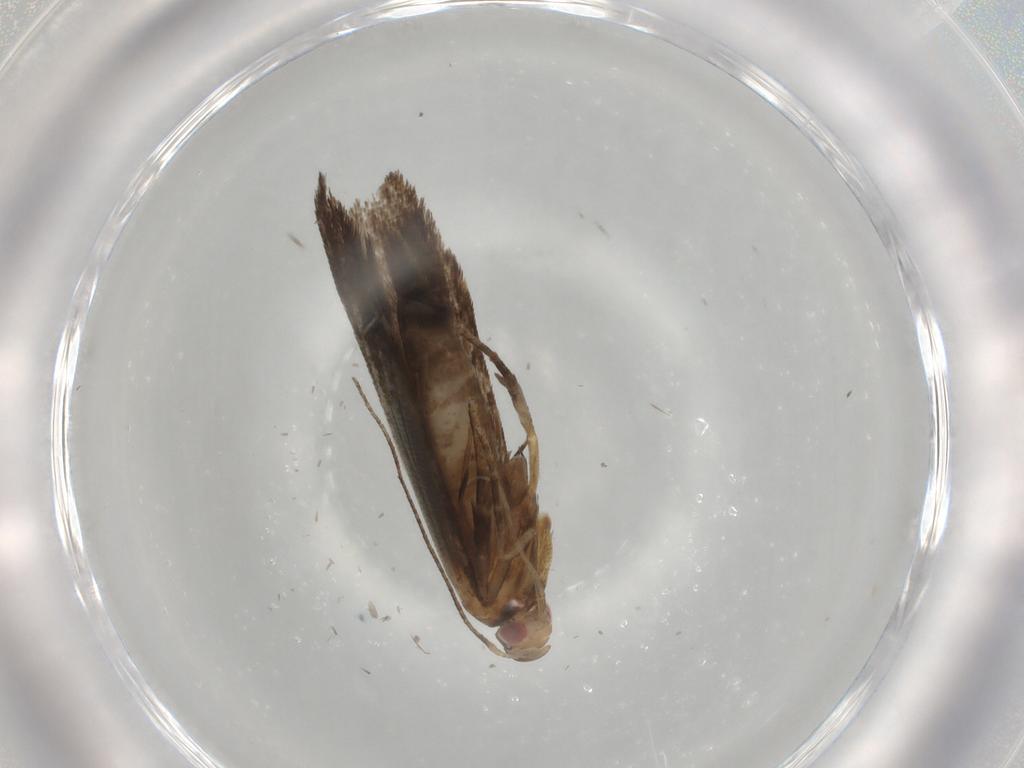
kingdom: Animalia
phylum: Arthropoda
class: Insecta
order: Lepidoptera
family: Gelechiidae
